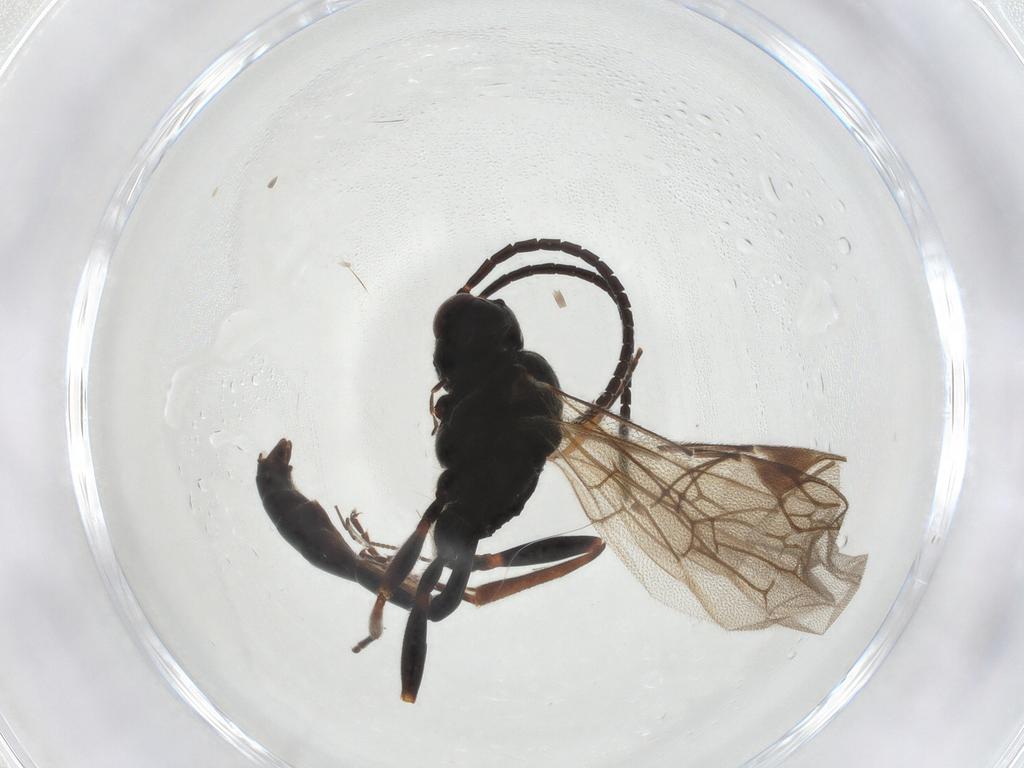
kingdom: Animalia
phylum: Arthropoda
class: Insecta
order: Hymenoptera
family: Ichneumonidae
